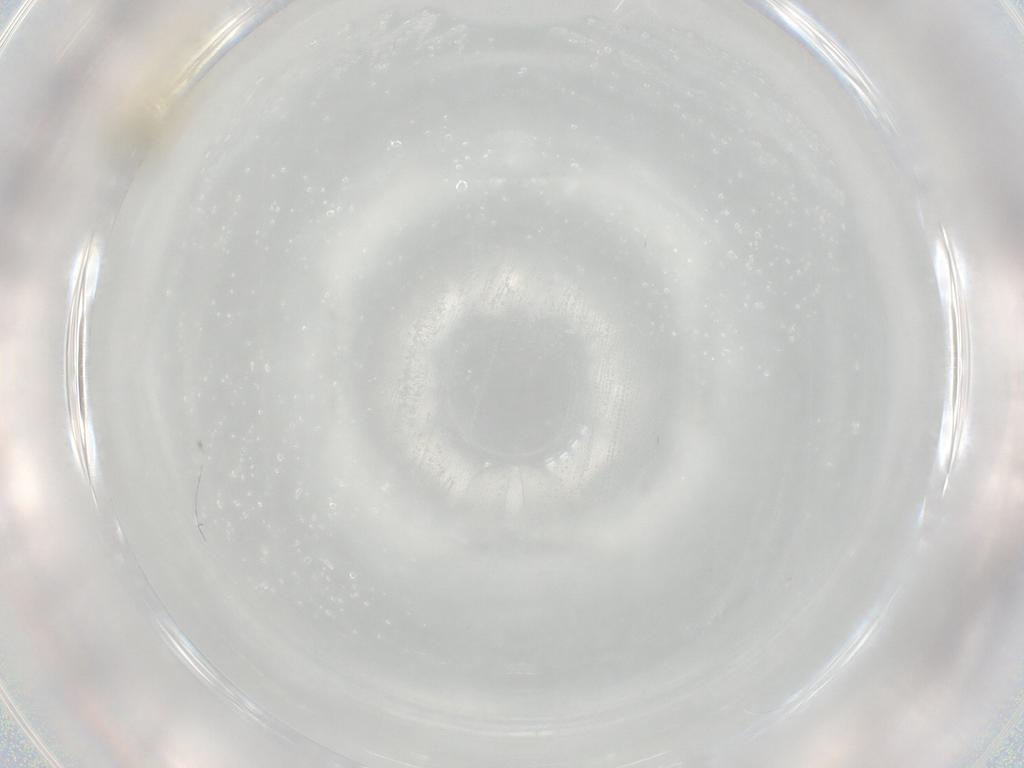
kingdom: Animalia
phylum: Arthropoda
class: Insecta
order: Diptera
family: Chironomidae
